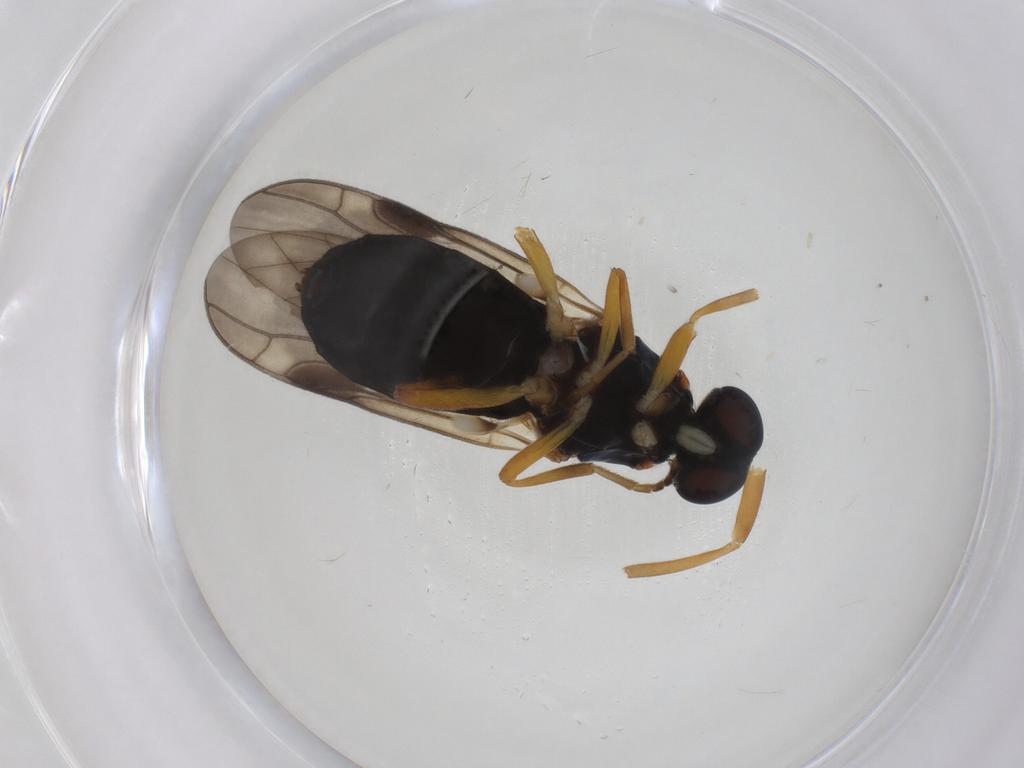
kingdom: Animalia
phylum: Arthropoda
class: Insecta
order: Diptera
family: Stratiomyidae
